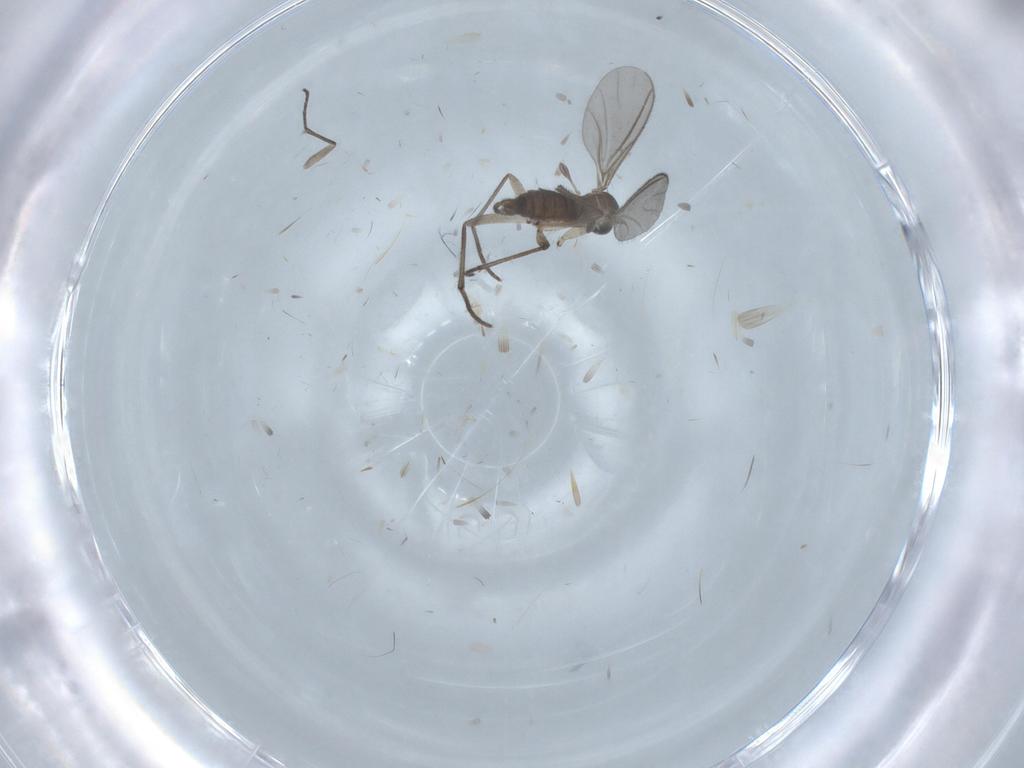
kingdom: Animalia
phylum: Arthropoda
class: Insecta
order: Diptera
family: Sciaridae
